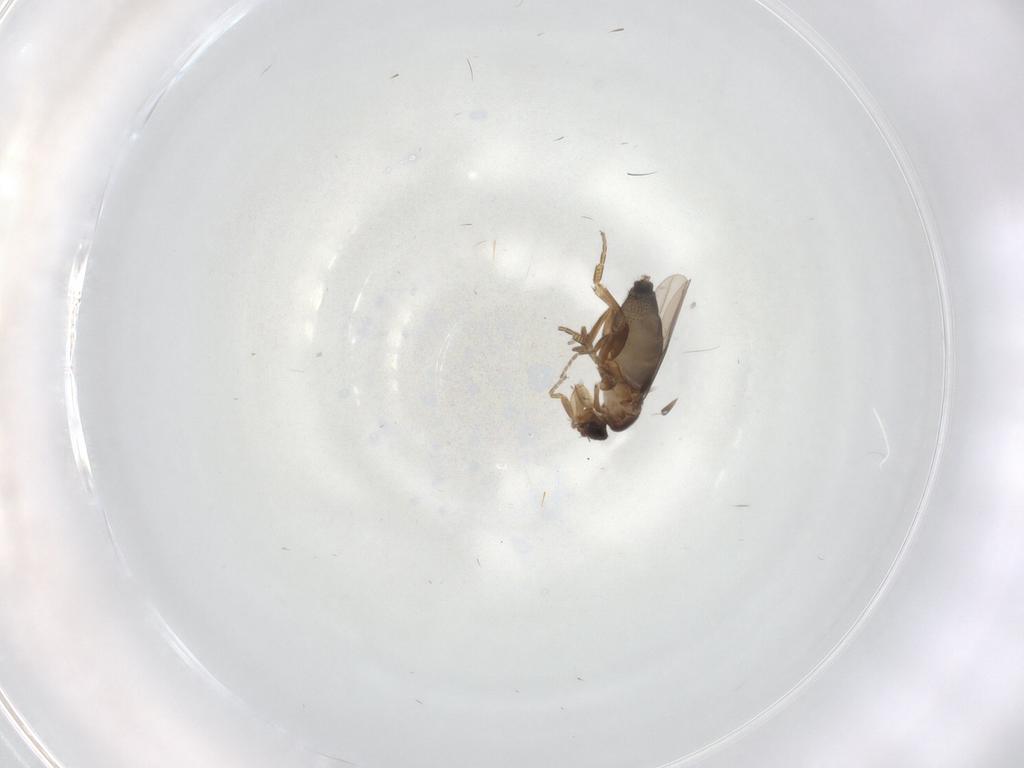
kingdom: Animalia
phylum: Arthropoda
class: Insecta
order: Diptera
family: Phoridae
